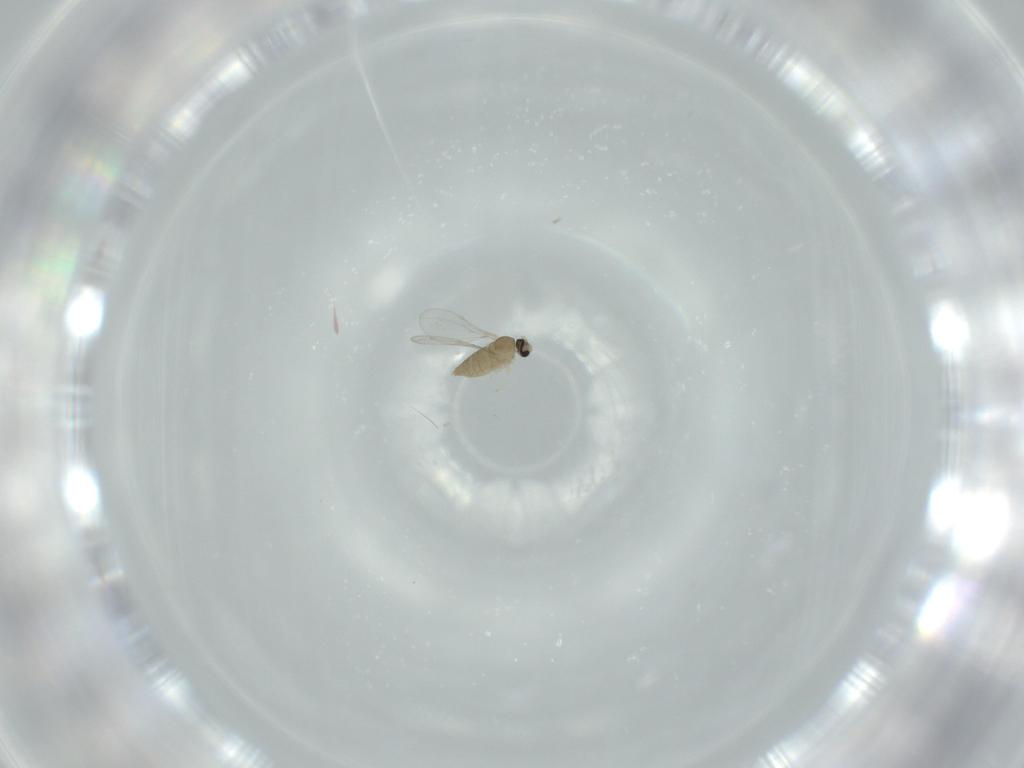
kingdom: Animalia
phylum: Arthropoda
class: Insecta
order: Diptera
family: Cecidomyiidae
